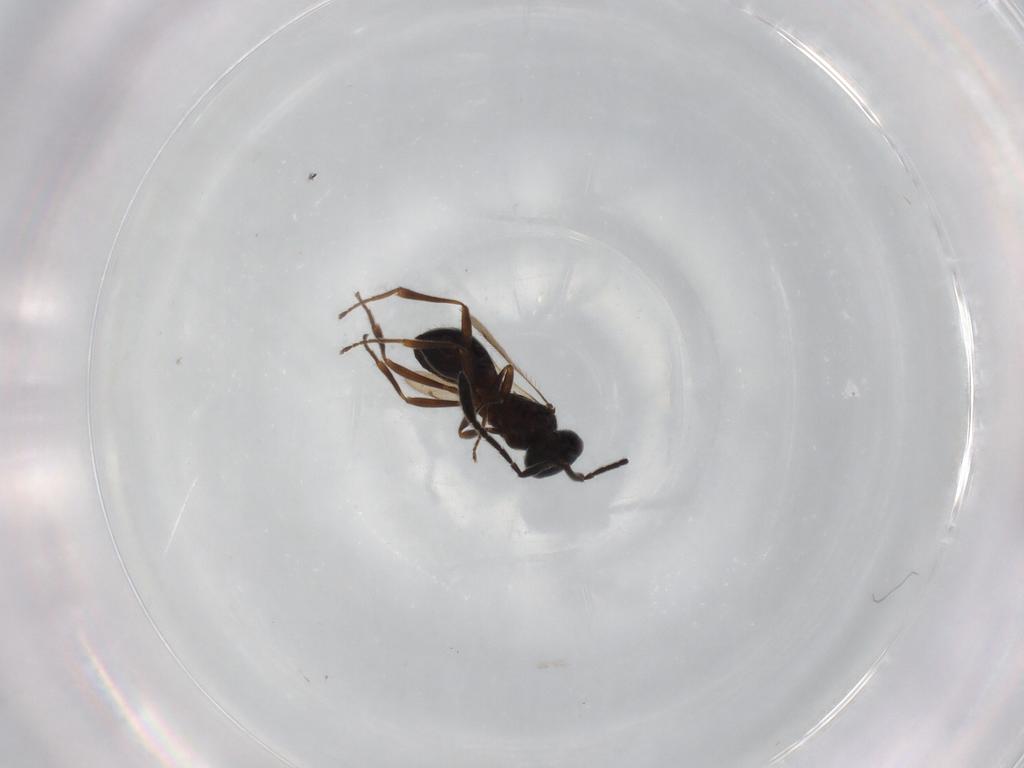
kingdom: Animalia
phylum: Arthropoda
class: Insecta
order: Hymenoptera
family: Scelionidae
